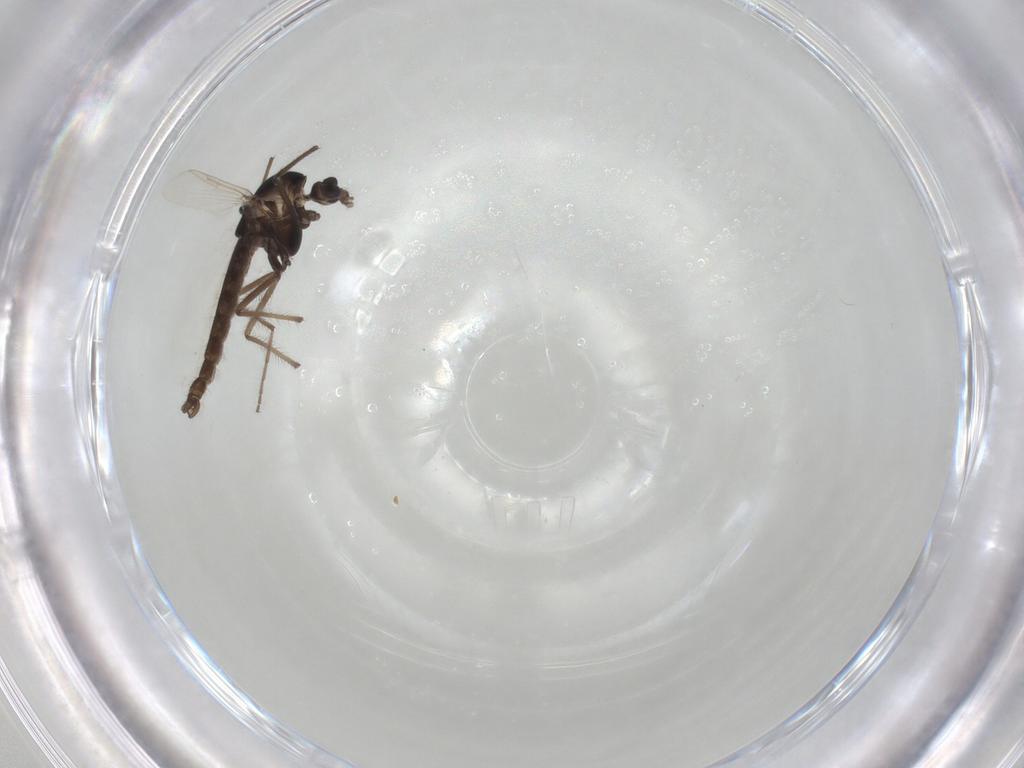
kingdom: Animalia
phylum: Arthropoda
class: Insecta
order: Diptera
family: Chironomidae
